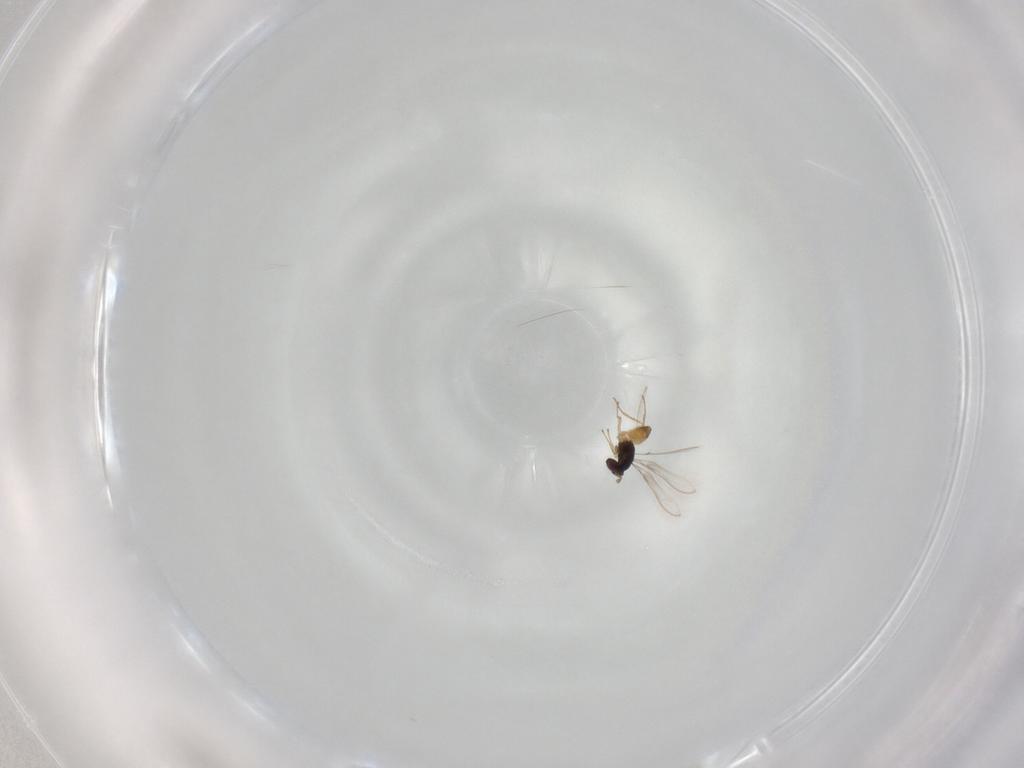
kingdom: Animalia
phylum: Arthropoda
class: Insecta
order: Hymenoptera
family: Mymaridae
